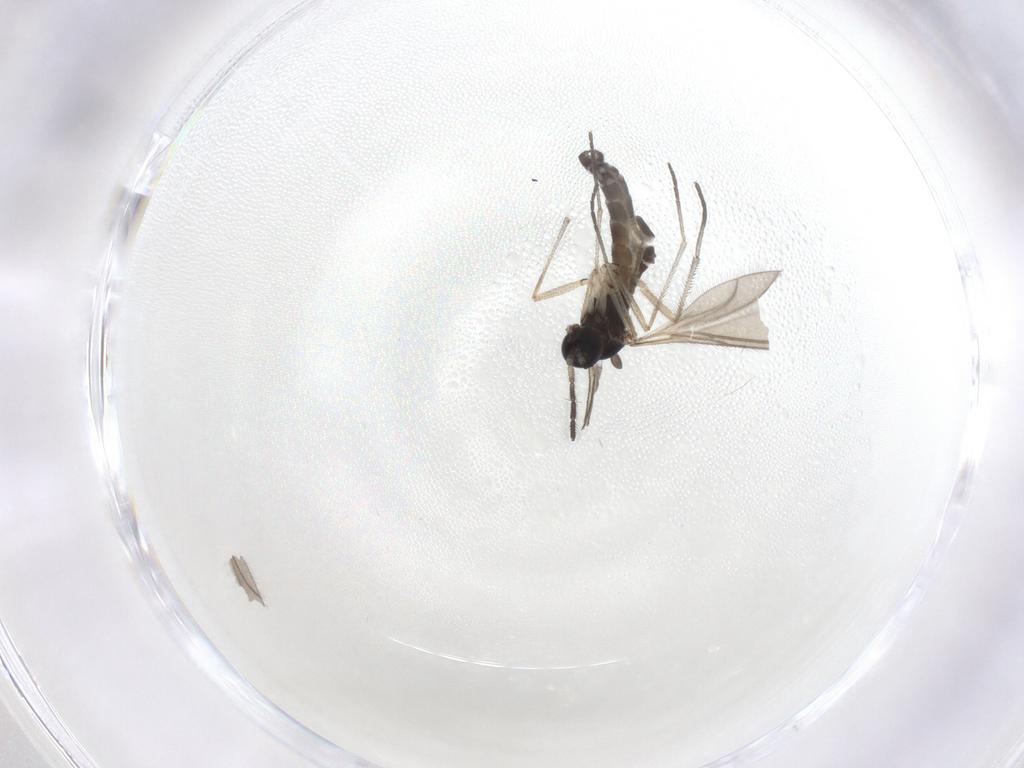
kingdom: Animalia
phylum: Arthropoda
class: Insecta
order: Diptera
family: Sciaridae
